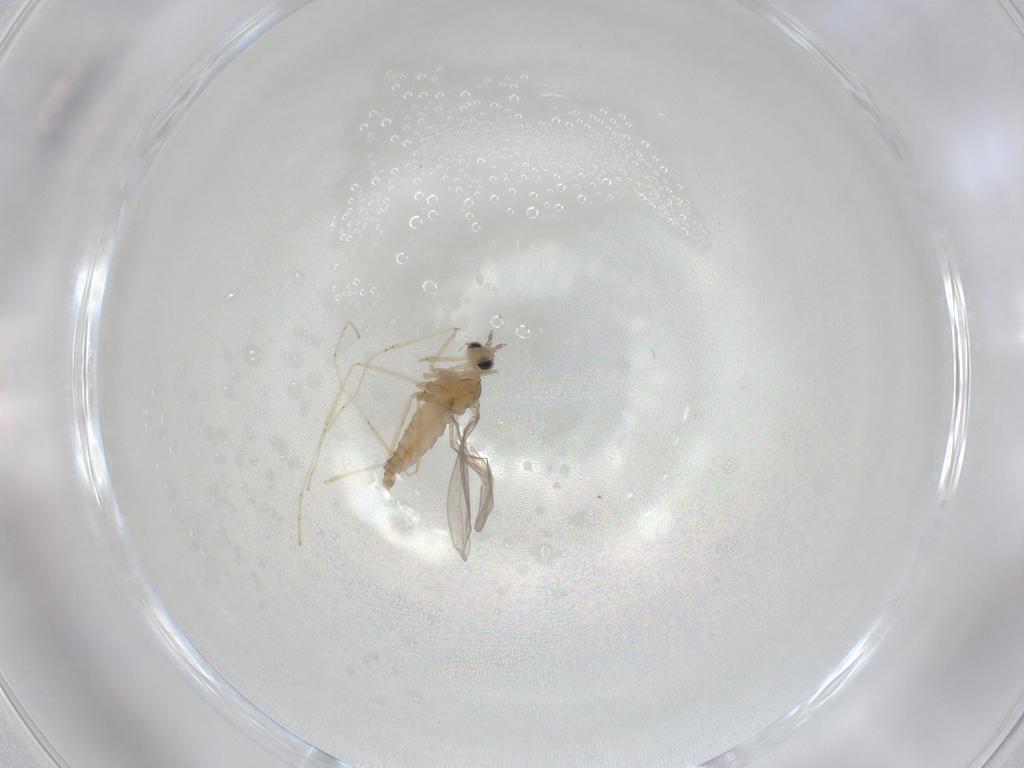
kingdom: Animalia
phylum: Arthropoda
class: Insecta
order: Diptera
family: Cecidomyiidae
